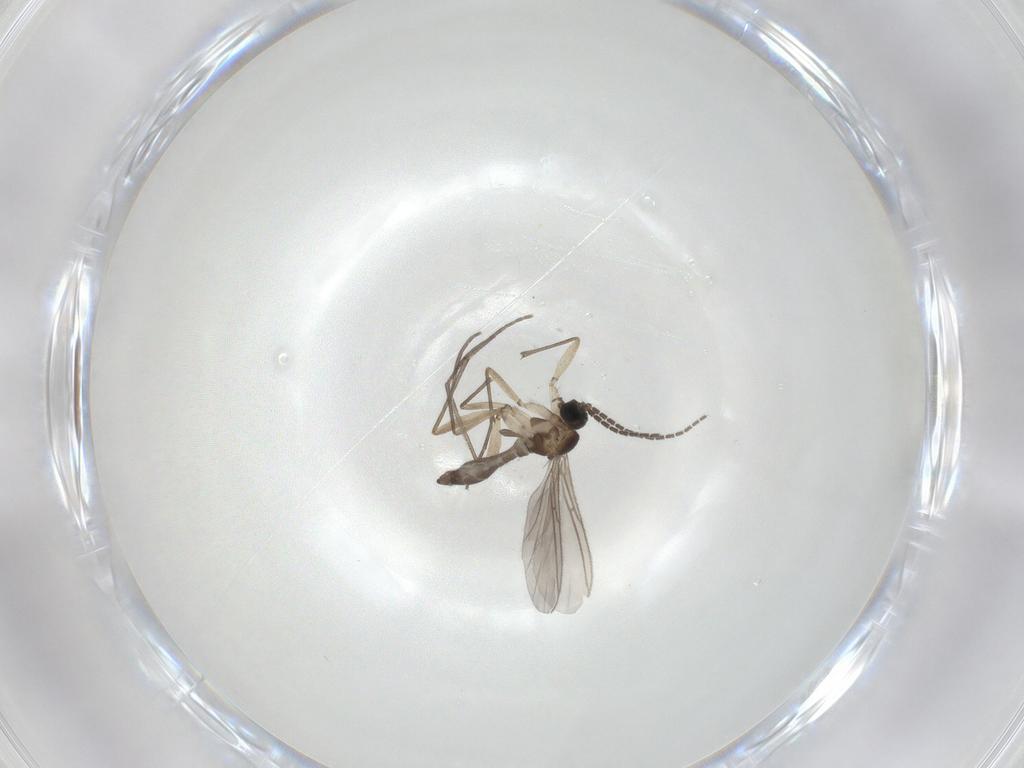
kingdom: Animalia
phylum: Arthropoda
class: Insecta
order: Diptera
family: Sciaridae
